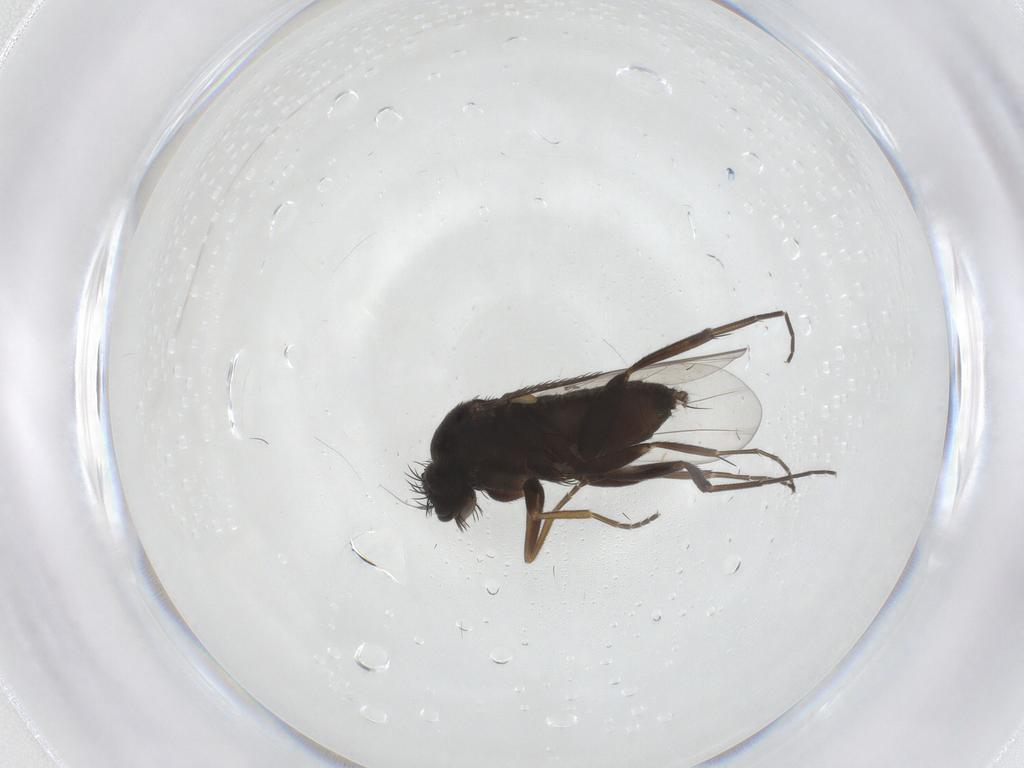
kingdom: Animalia
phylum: Arthropoda
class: Insecta
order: Diptera
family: Phoridae
